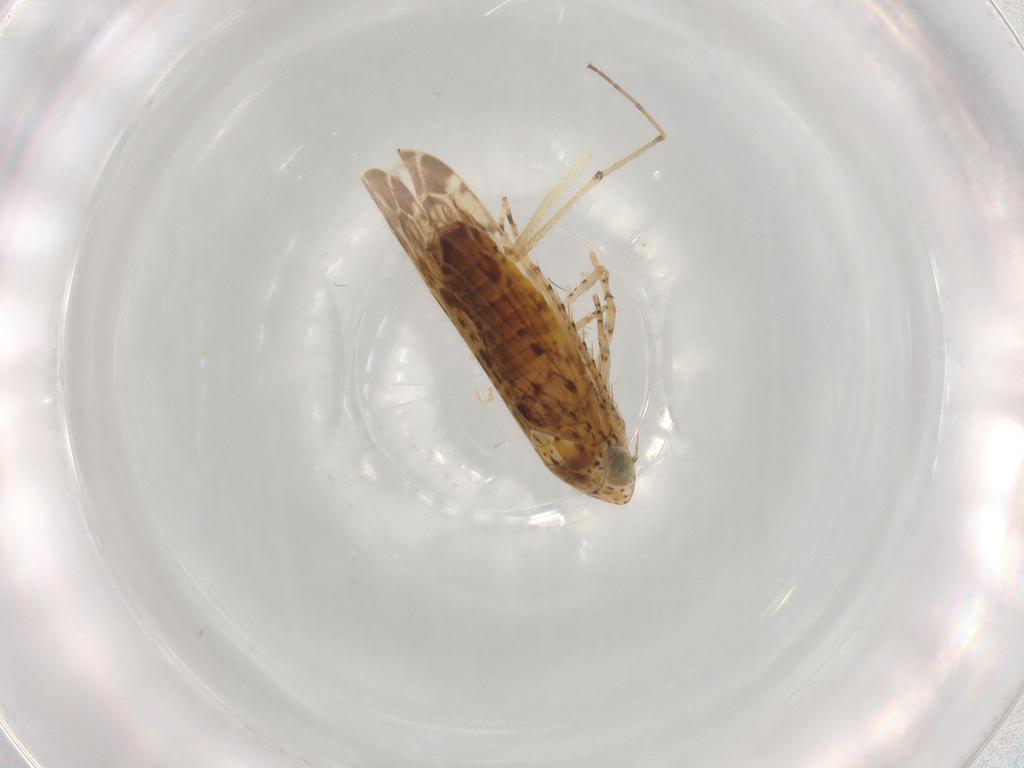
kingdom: Animalia
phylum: Arthropoda
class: Insecta
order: Hemiptera
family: Cicadellidae
